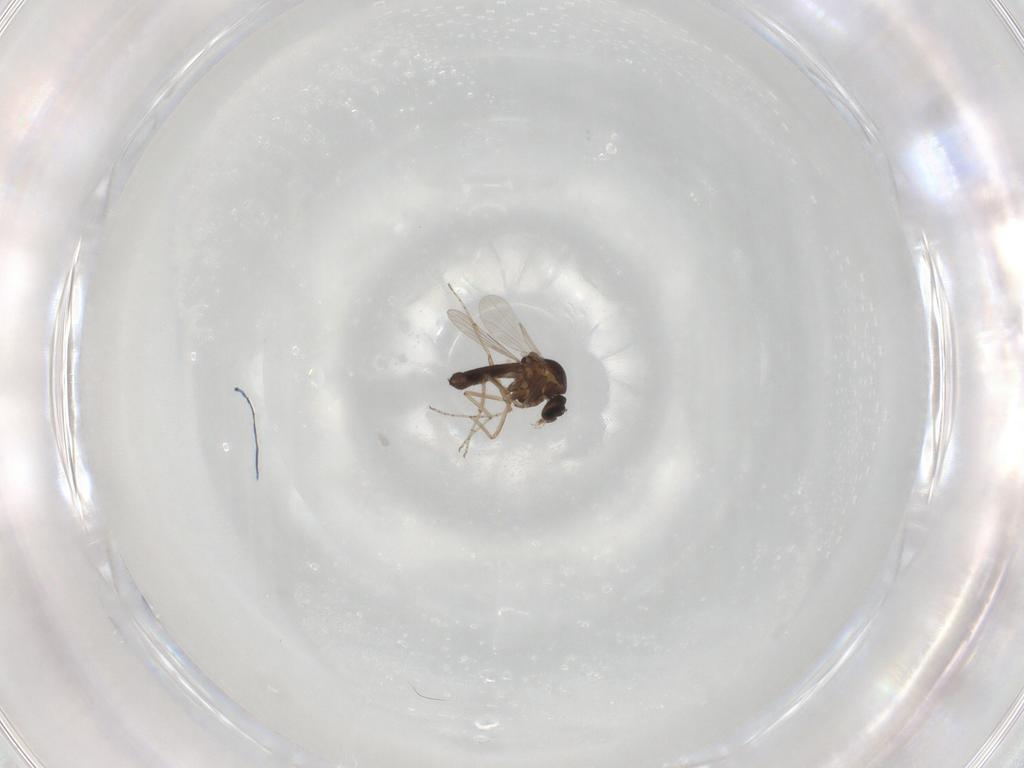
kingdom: Animalia
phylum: Arthropoda
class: Insecta
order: Diptera
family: Ceratopogonidae
